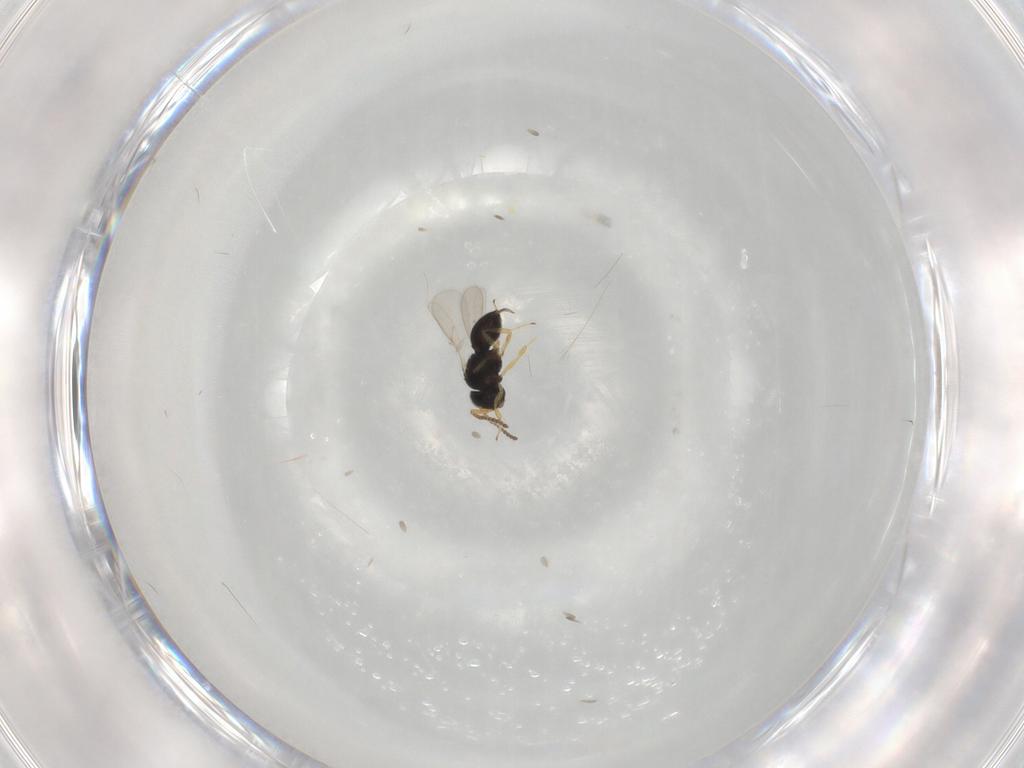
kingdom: Animalia
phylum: Arthropoda
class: Insecta
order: Hymenoptera
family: Scelionidae
